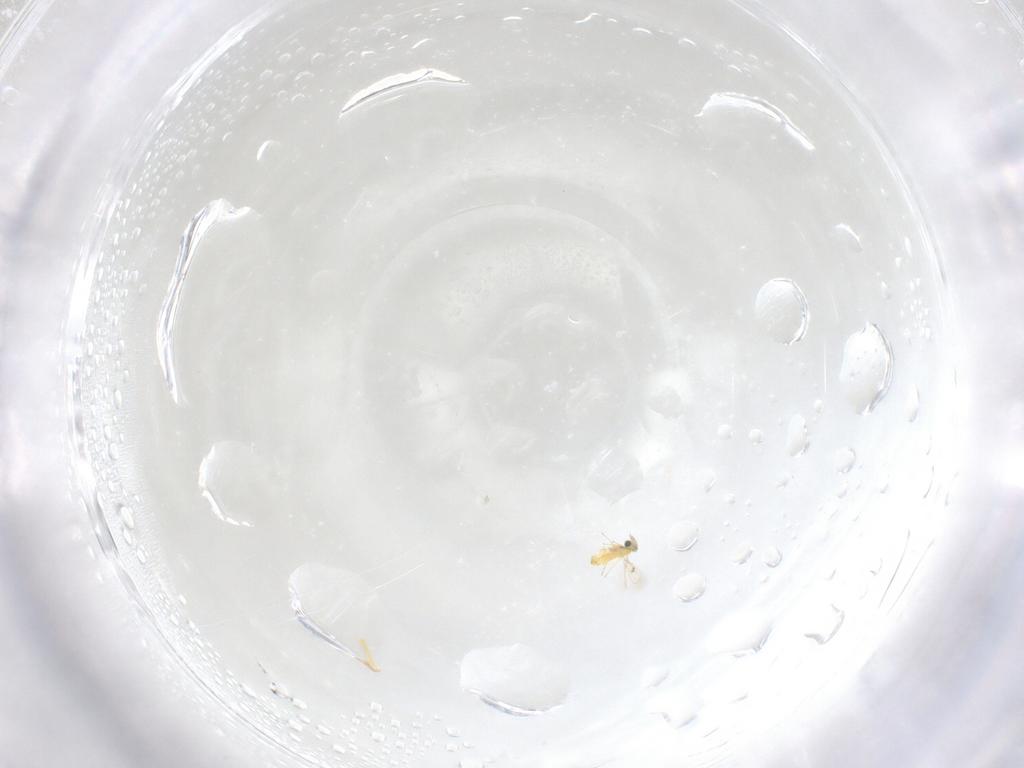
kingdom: Animalia
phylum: Arthropoda
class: Insecta
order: Hymenoptera
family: Trichogrammatidae
